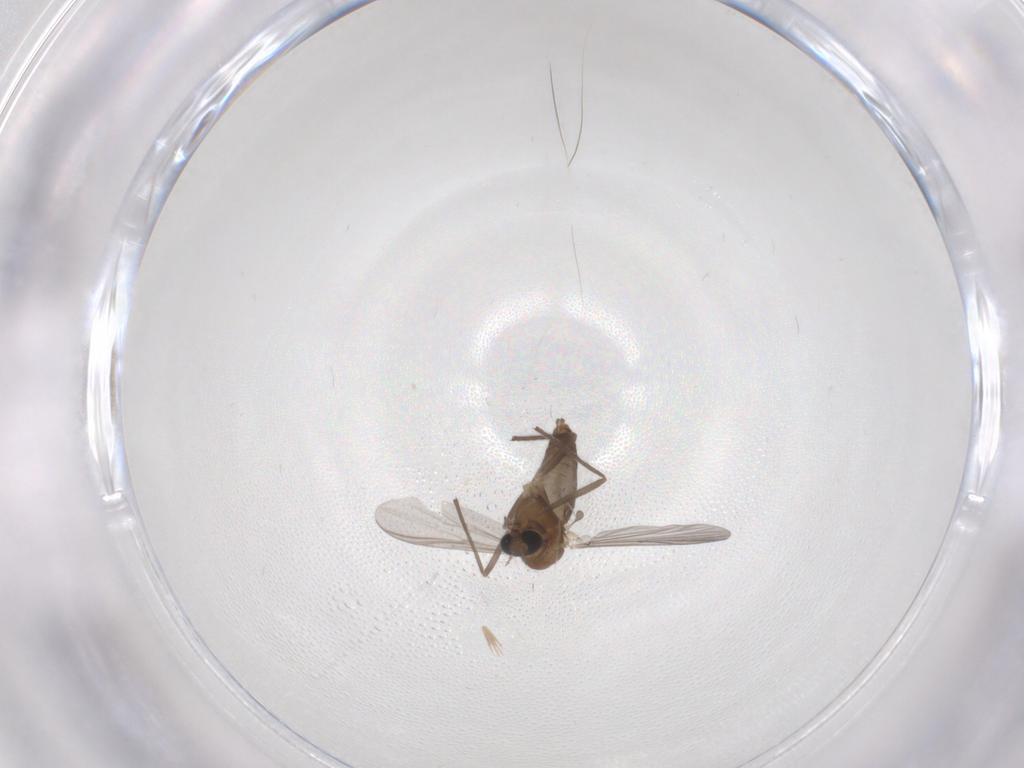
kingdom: Animalia
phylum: Arthropoda
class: Insecta
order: Diptera
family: Chironomidae
